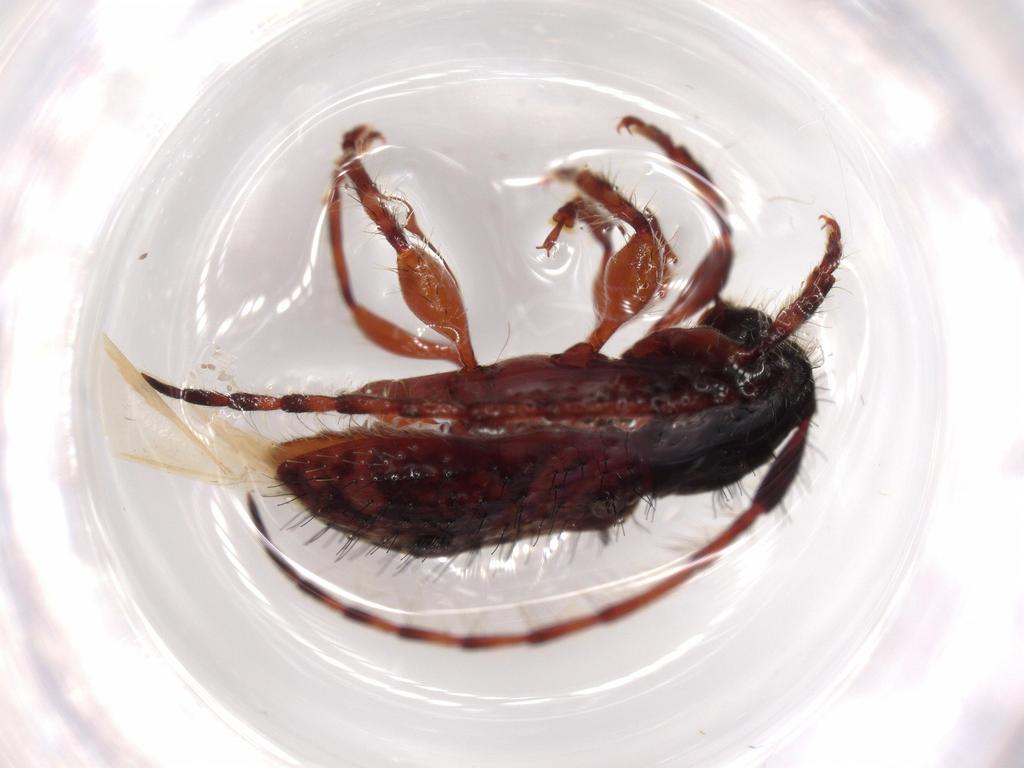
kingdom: Animalia
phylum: Arthropoda
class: Insecta
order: Coleoptera
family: Cerambycidae
